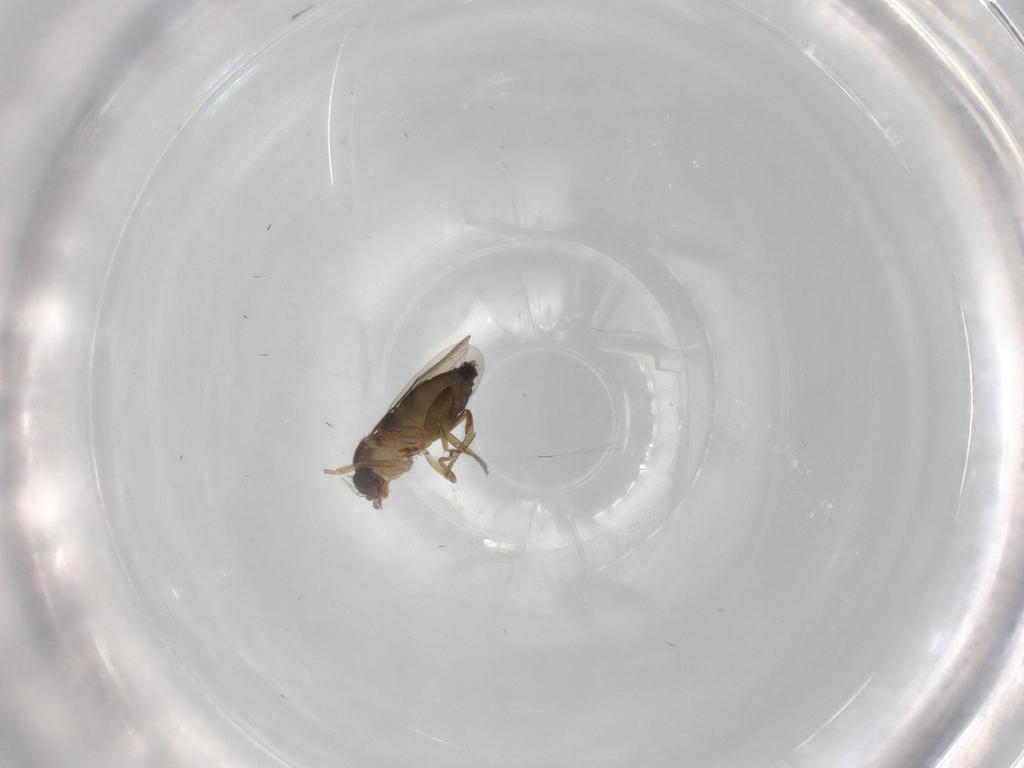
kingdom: Animalia
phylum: Arthropoda
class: Insecta
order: Diptera
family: Phoridae
